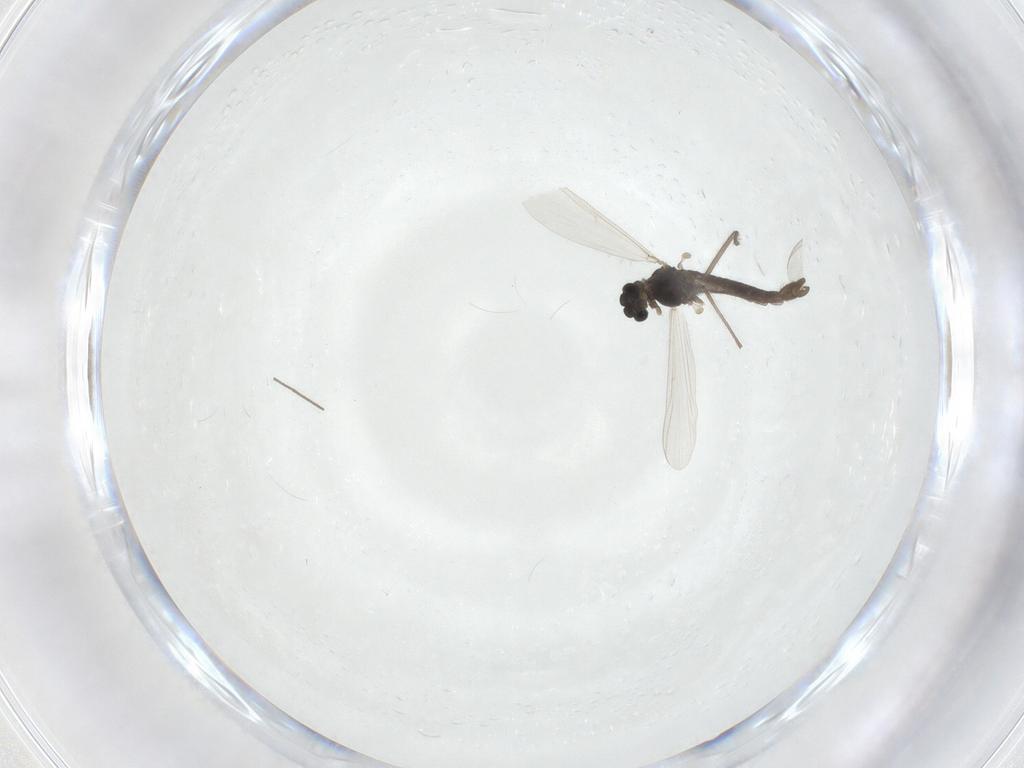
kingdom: Animalia
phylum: Arthropoda
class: Insecta
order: Diptera
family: Chironomidae
